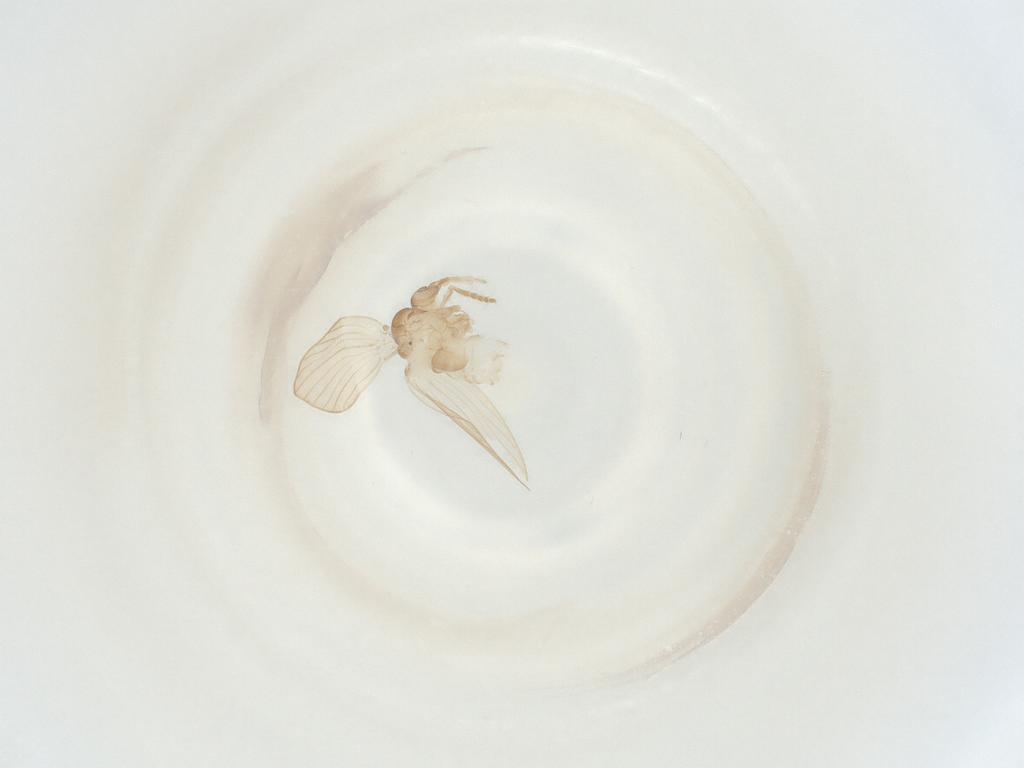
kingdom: Animalia
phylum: Arthropoda
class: Insecta
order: Diptera
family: Psychodidae
